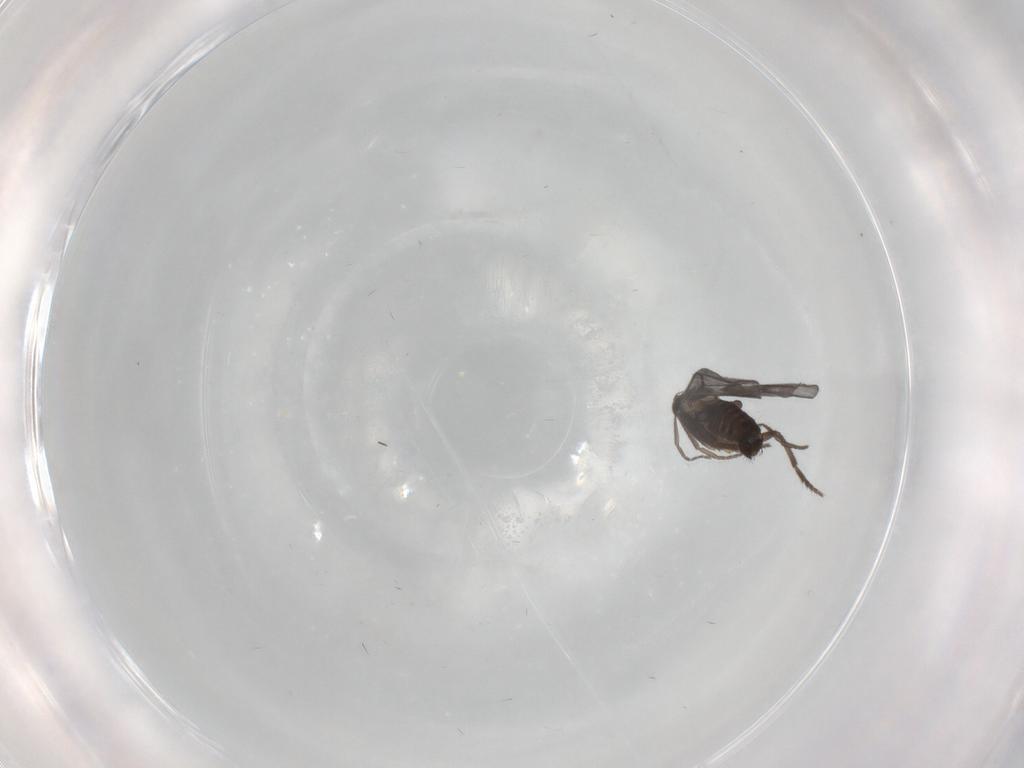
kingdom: Animalia
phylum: Arthropoda
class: Insecta
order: Diptera
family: Phoridae
